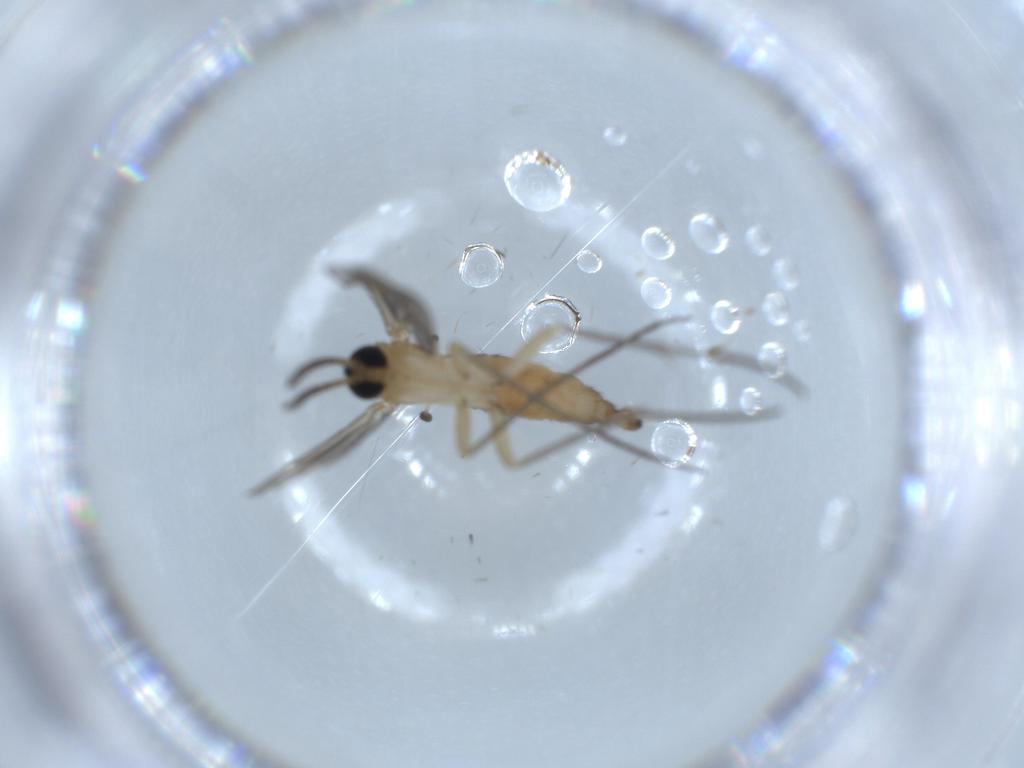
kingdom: Animalia
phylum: Arthropoda
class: Insecta
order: Diptera
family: Sciaridae
